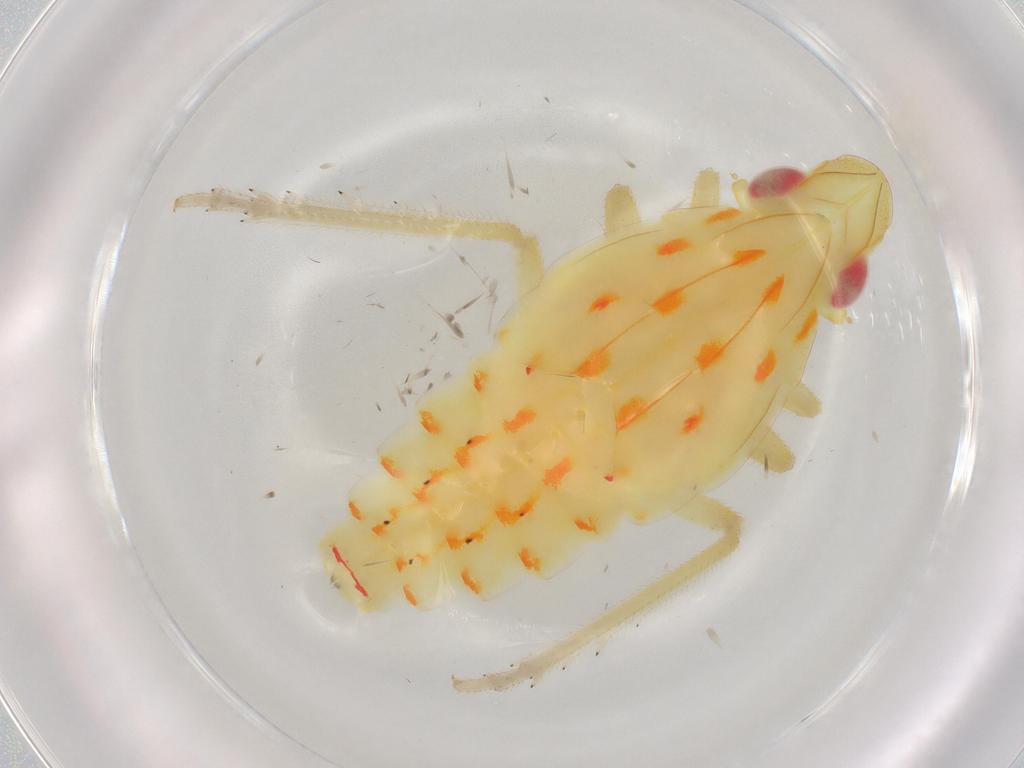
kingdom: Animalia
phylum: Arthropoda
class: Insecta
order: Hemiptera
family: Tropiduchidae
